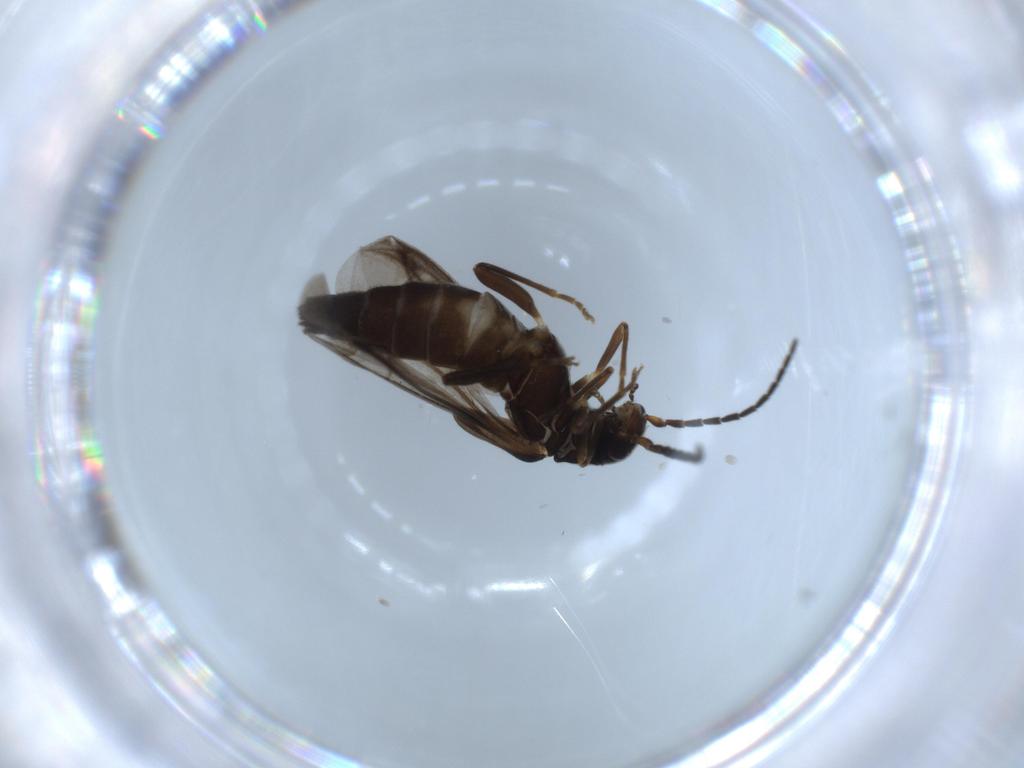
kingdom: Animalia
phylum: Arthropoda
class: Insecta
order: Coleoptera
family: Cantharidae
